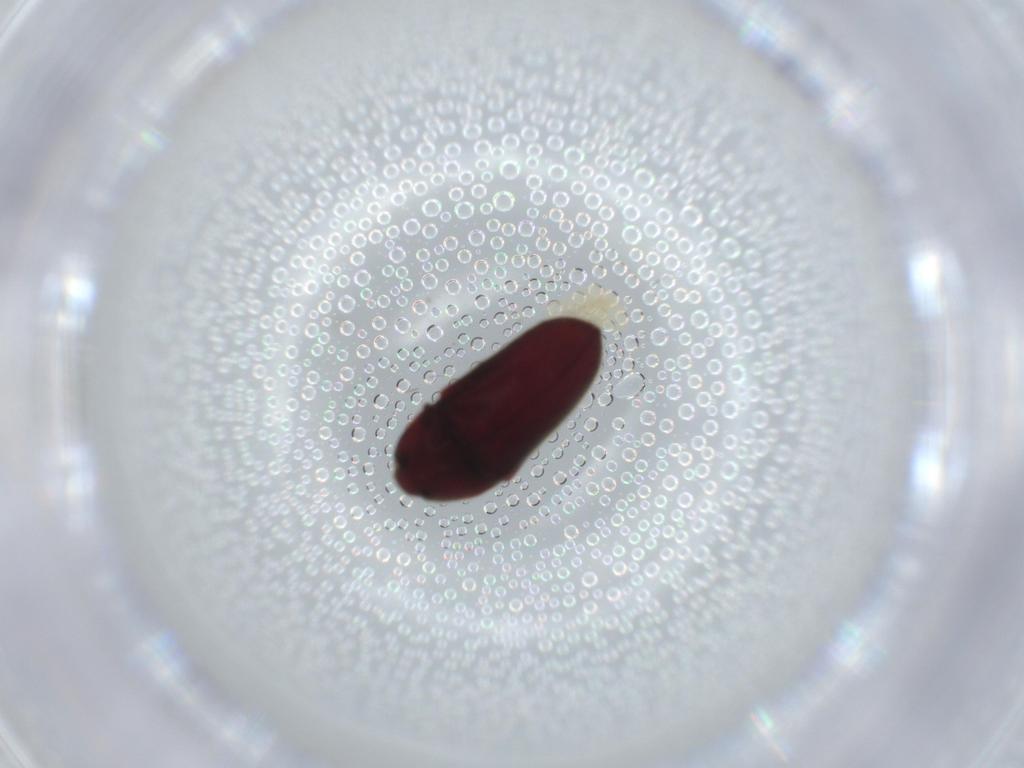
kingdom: Animalia
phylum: Arthropoda
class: Insecta
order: Coleoptera
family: Throscidae
